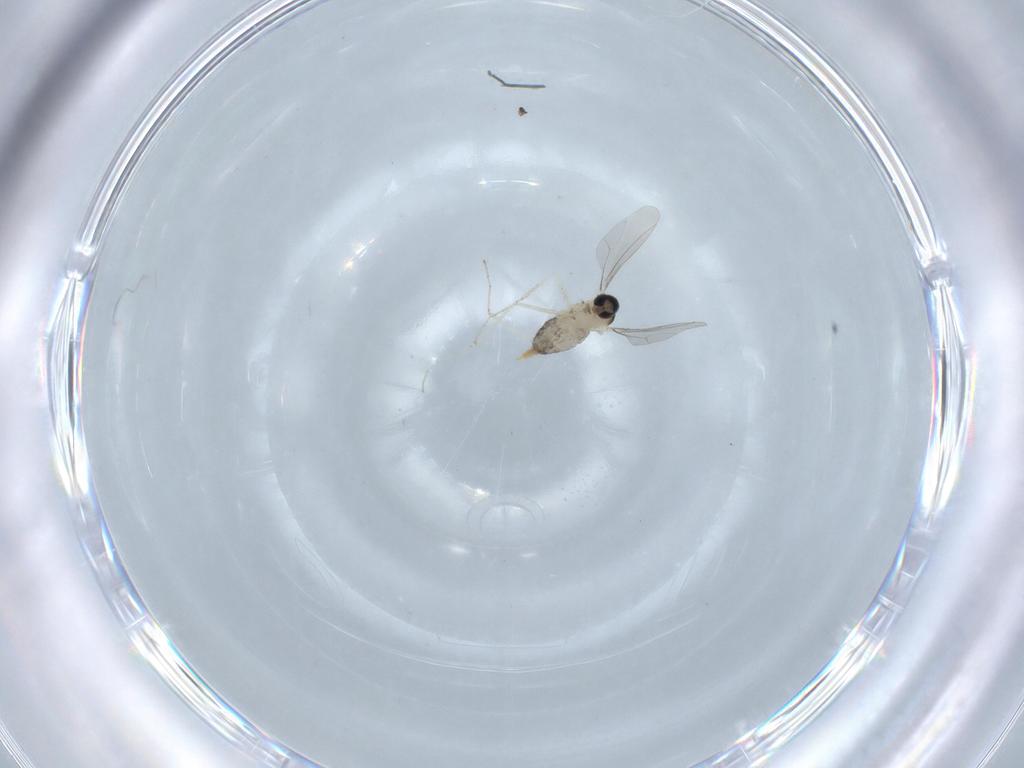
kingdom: Animalia
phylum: Arthropoda
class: Insecta
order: Diptera
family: Cecidomyiidae
